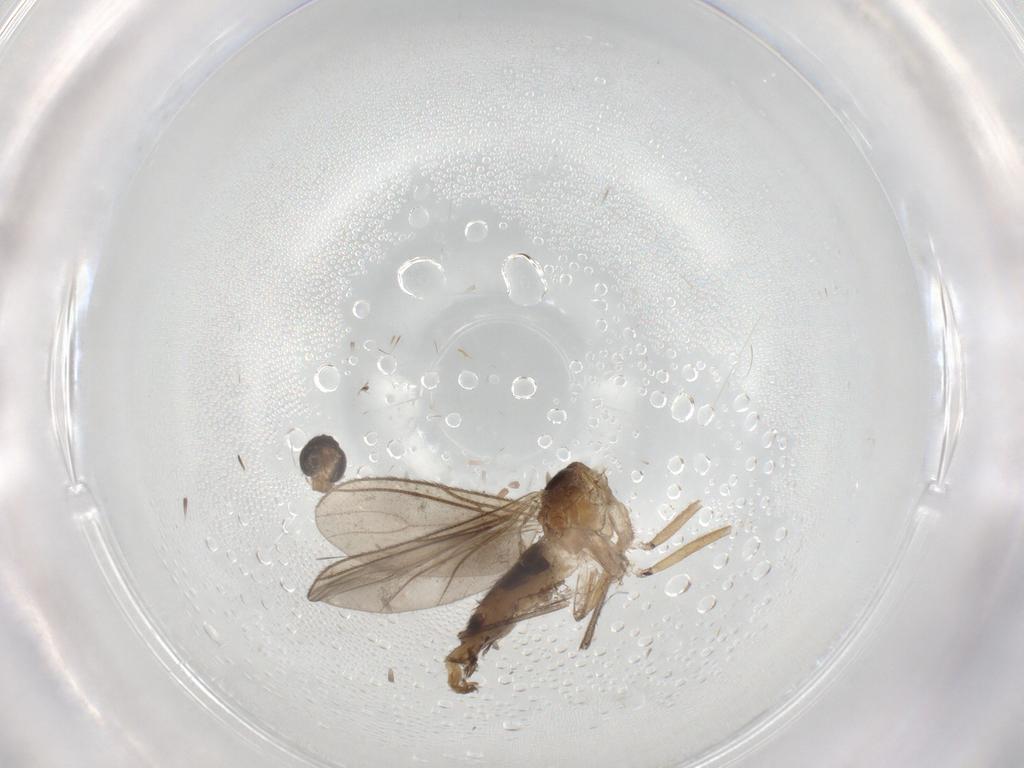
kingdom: Animalia
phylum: Arthropoda
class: Insecta
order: Diptera
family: Ceratopogonidae
